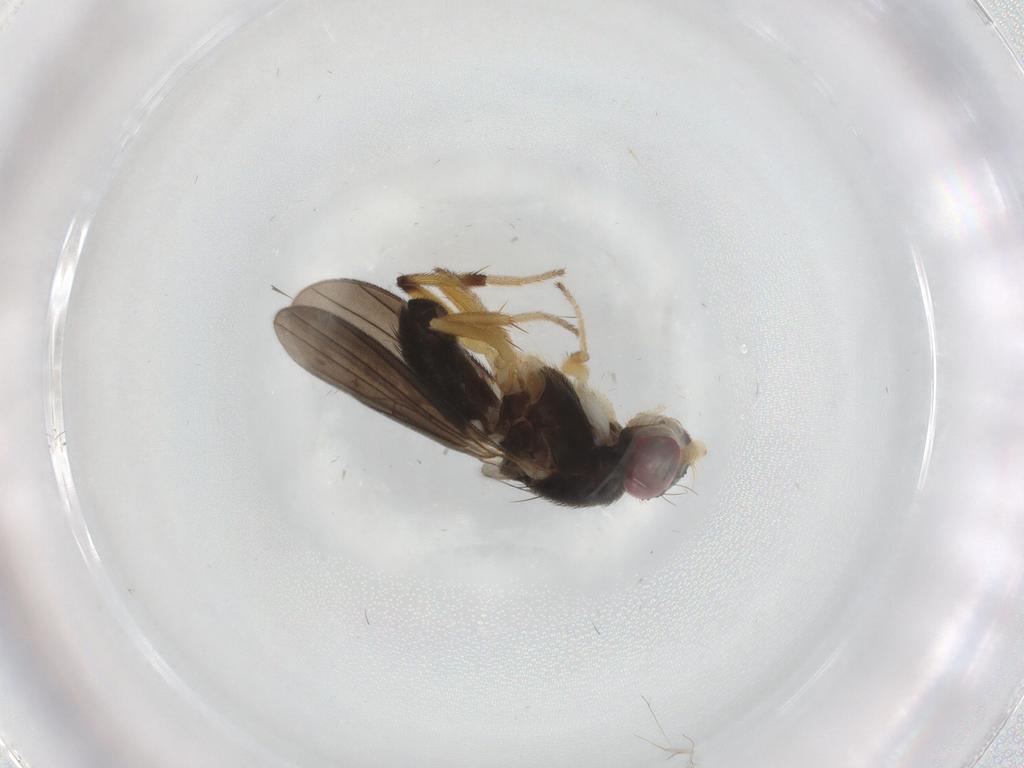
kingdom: Animalia
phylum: Arthropoda
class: Insecta
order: Diptera
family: Clusiidae
